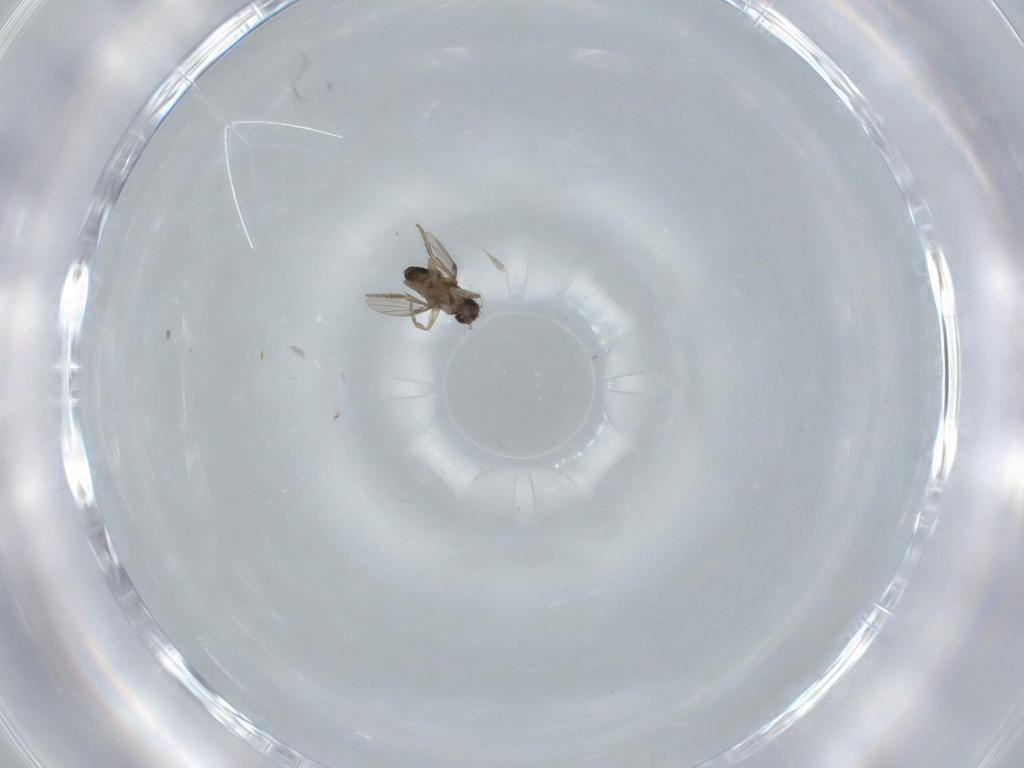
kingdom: Animalia
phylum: Arthropoda
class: Insecta
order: Diptera
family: Phoridae
